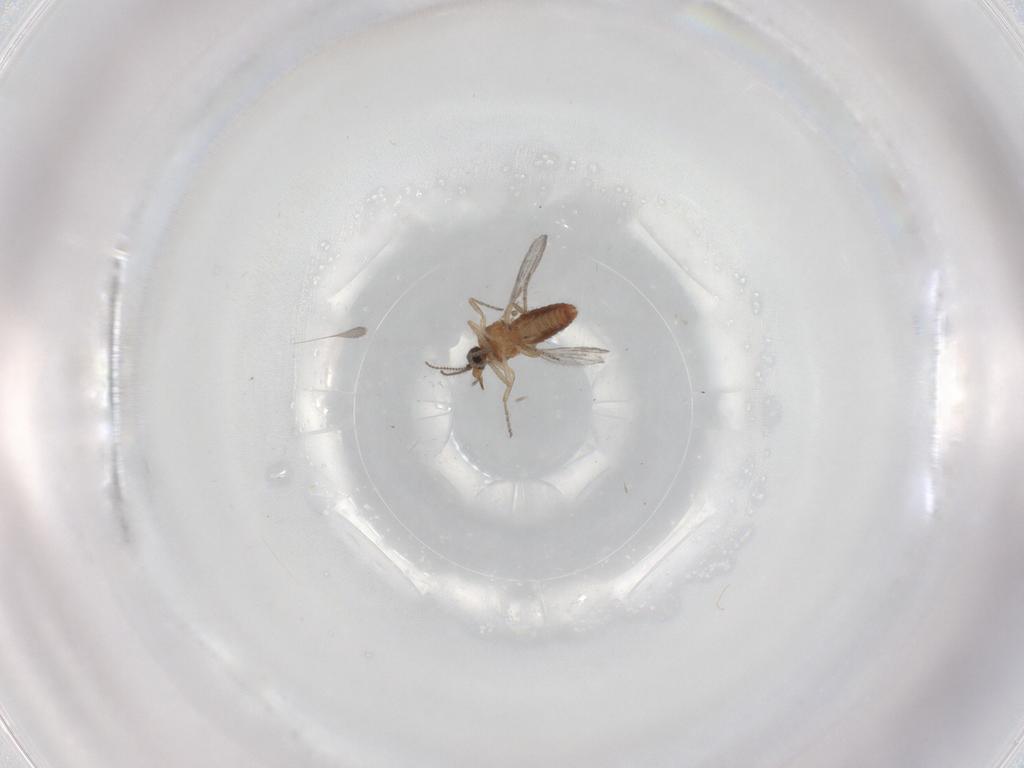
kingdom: Animalia
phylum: Arthropoda
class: Insecta
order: Diptera
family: Ceratopogonidae
